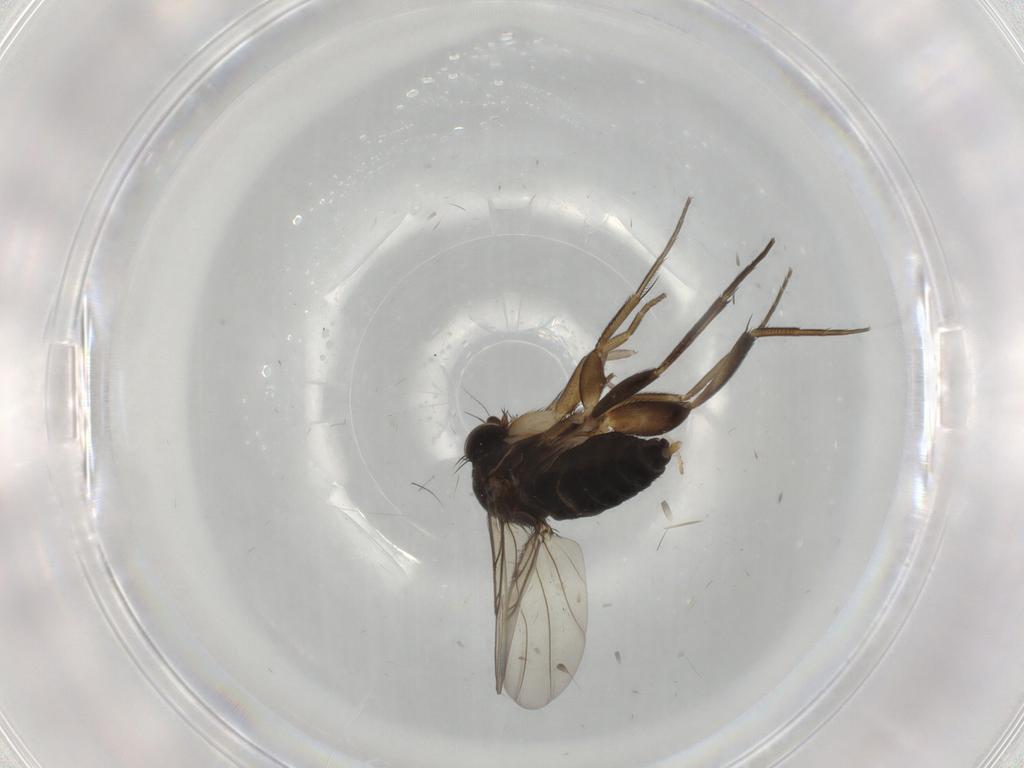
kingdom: Animalia
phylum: Arthropoda
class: Insecta
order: Diptera
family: Phoridae
